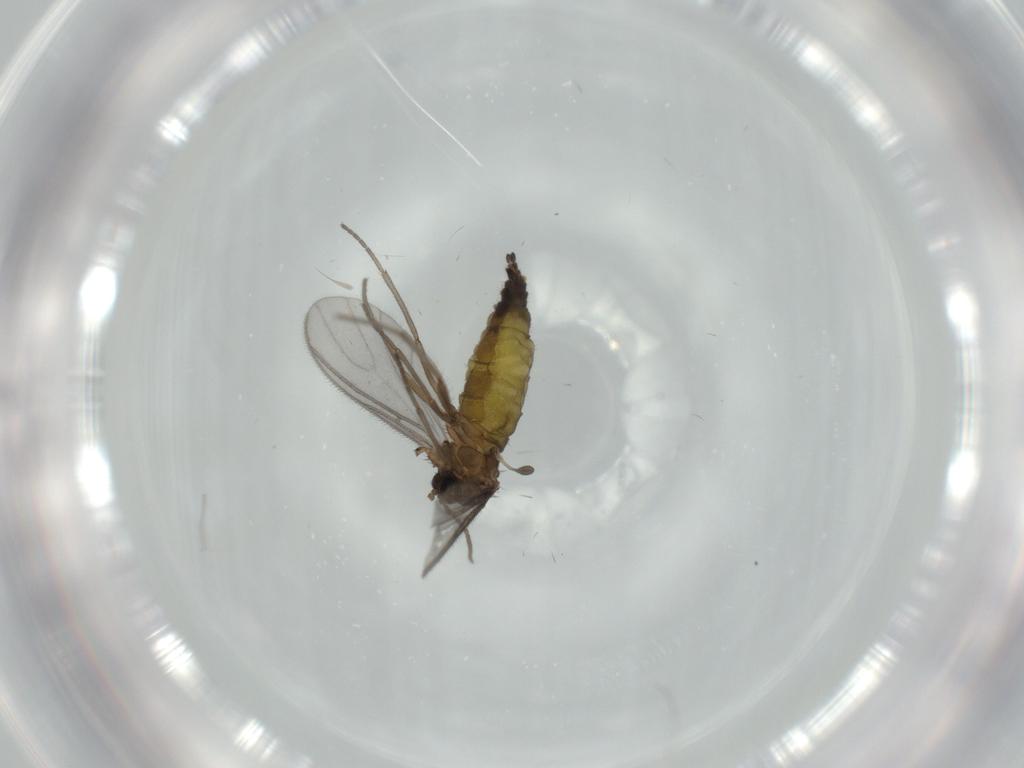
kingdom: Animalia
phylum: Arthropoda
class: Insecta
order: Diptera
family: Sciaridae
